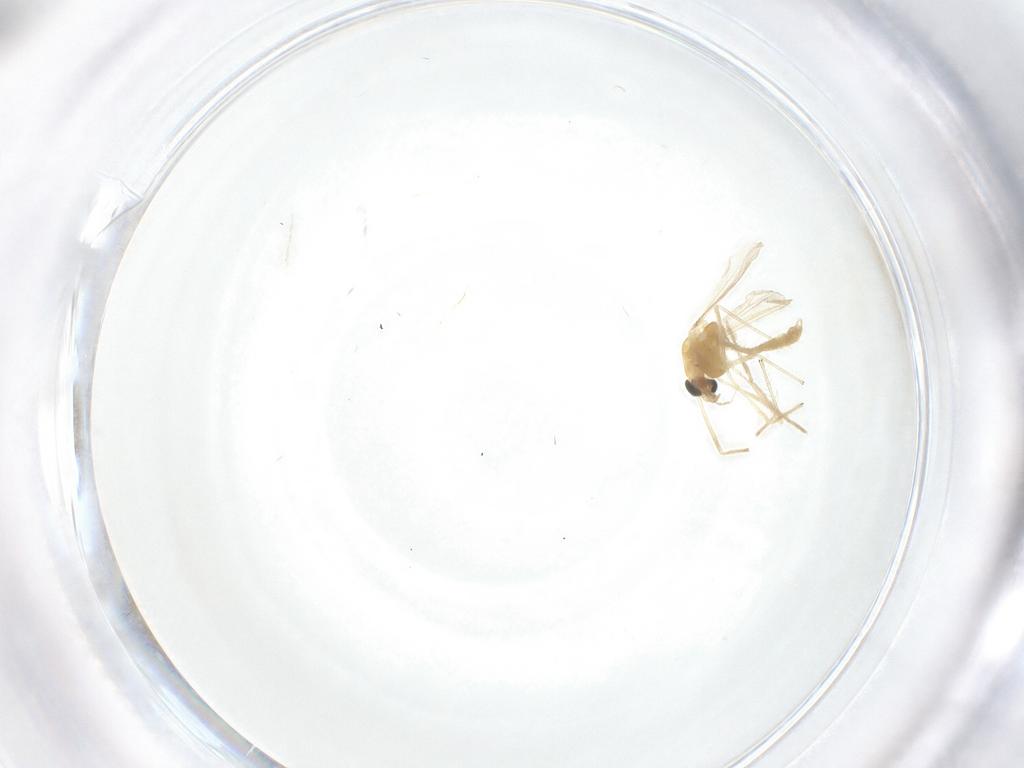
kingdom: Animalia
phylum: Arthropoda
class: Insecta
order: Diptera
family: Chironomidae
